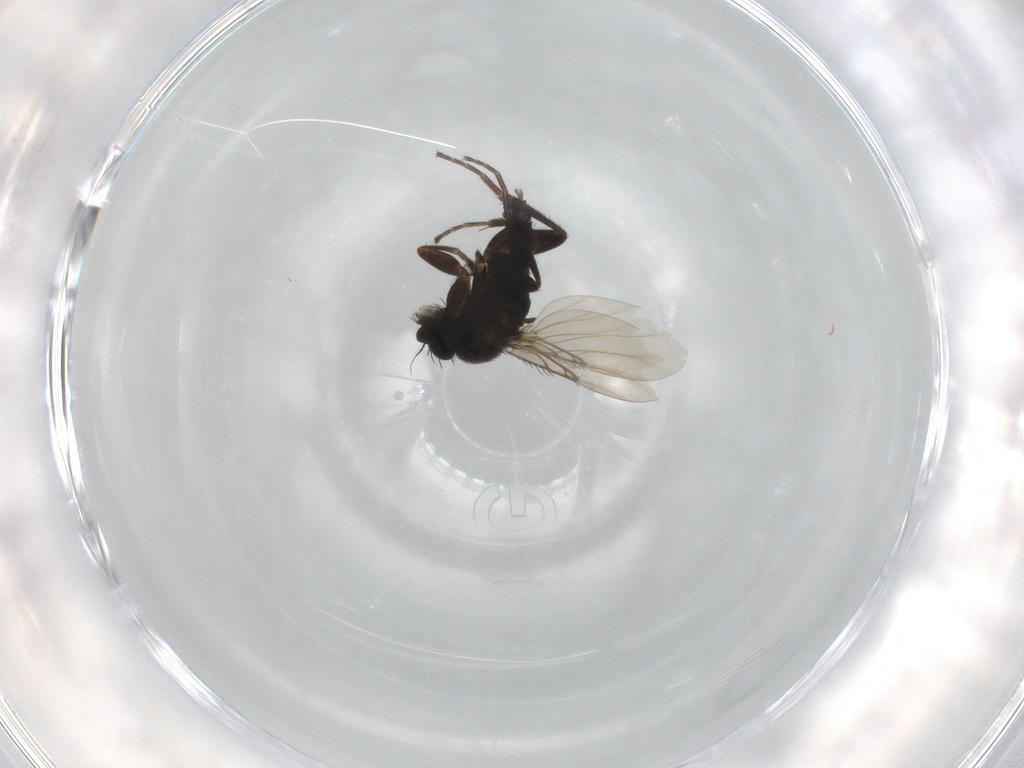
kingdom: Animalia
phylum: Arthropoda
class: Insecta
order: Diptera
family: Phoridae
